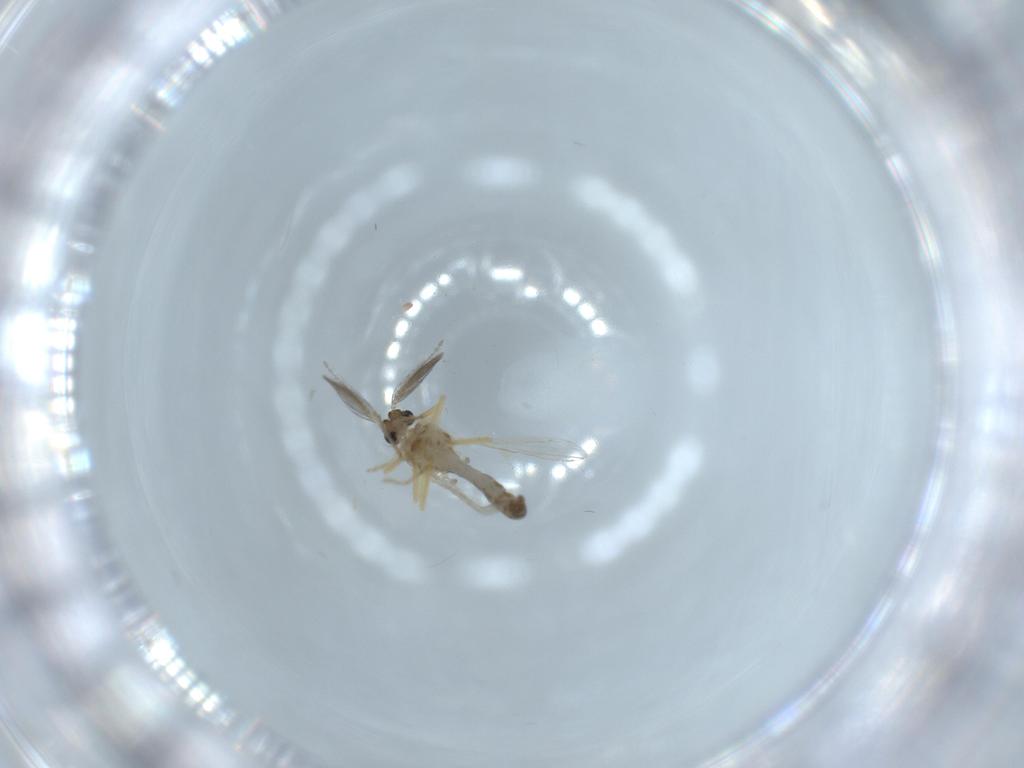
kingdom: Animalia
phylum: Arthropoda
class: Insecta
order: Diptera
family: Ceratopogonidae
